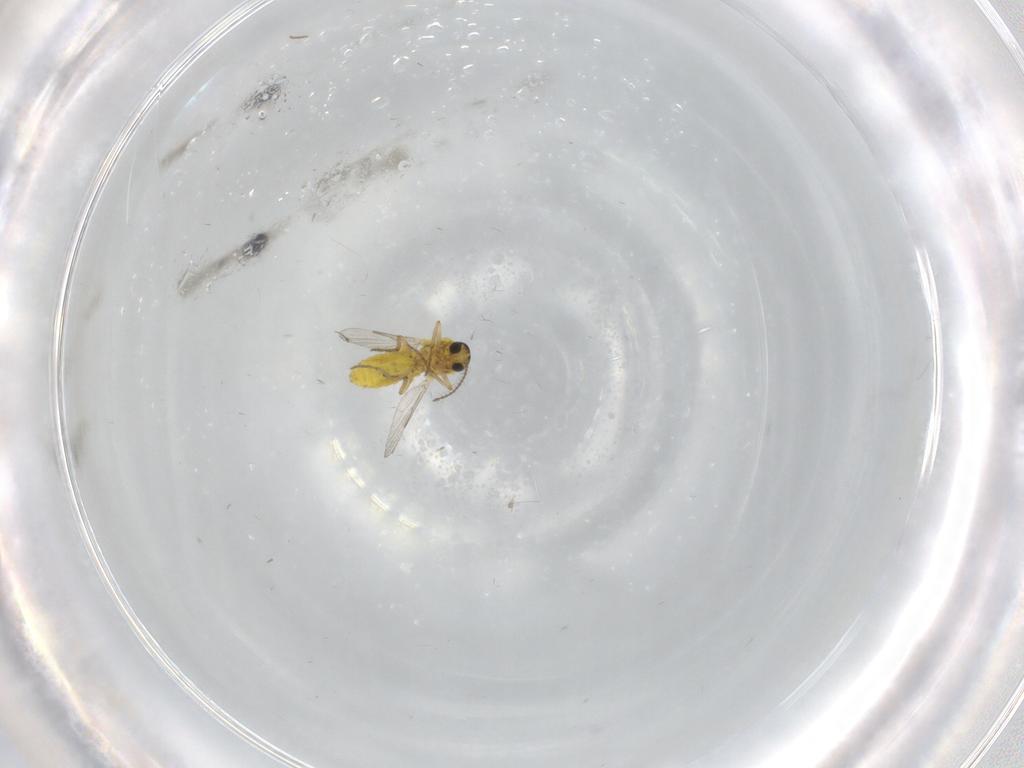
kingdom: Animalia
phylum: Arthropoda
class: Insecta
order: Diptera
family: Ceratopogonidae
